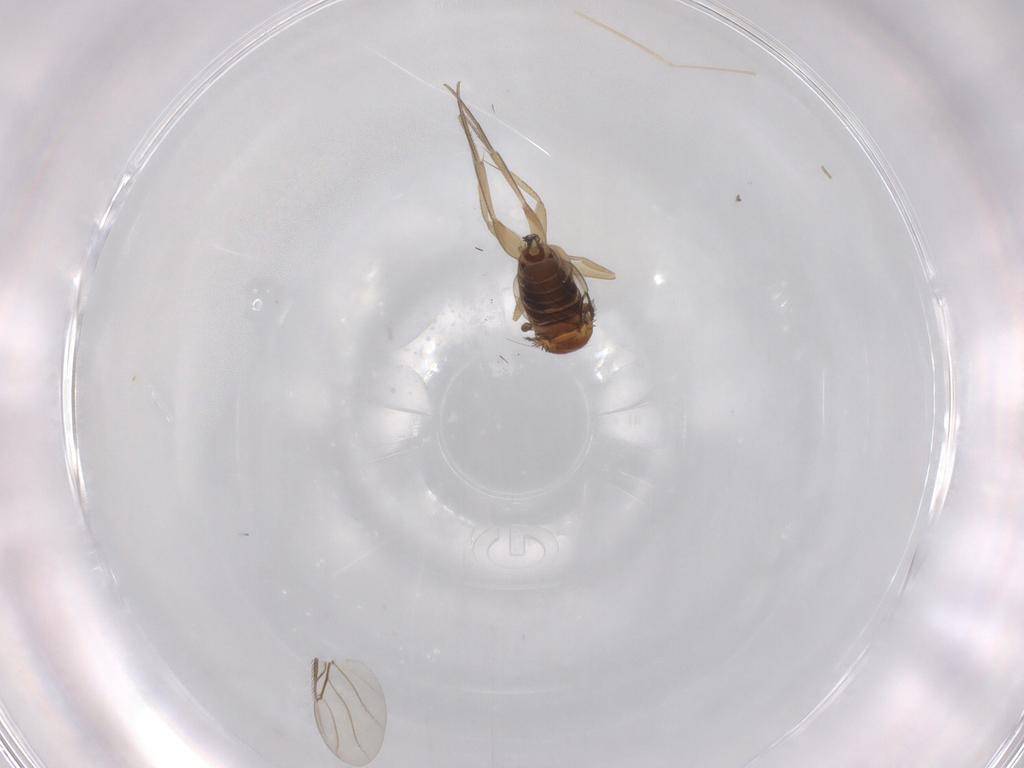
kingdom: Animalia
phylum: Arthropoda
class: Insecta
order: Diptera
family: Phoridae
